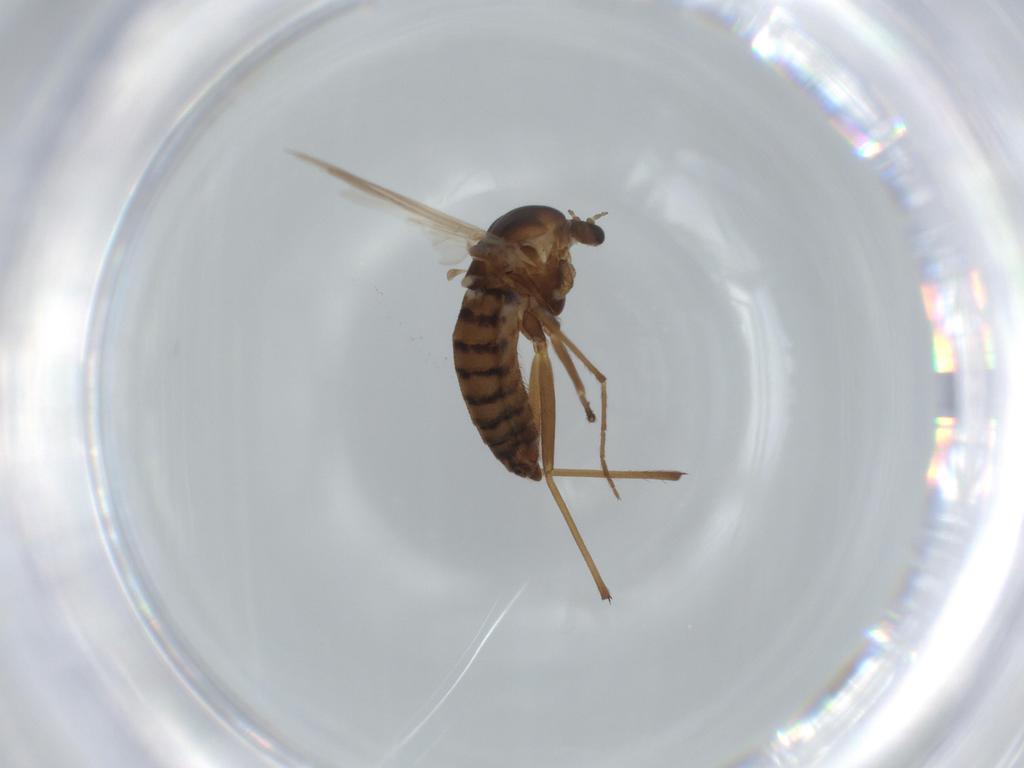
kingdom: Animalia
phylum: Arthropoda
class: Insecta
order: Diptera
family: Chironomidae
